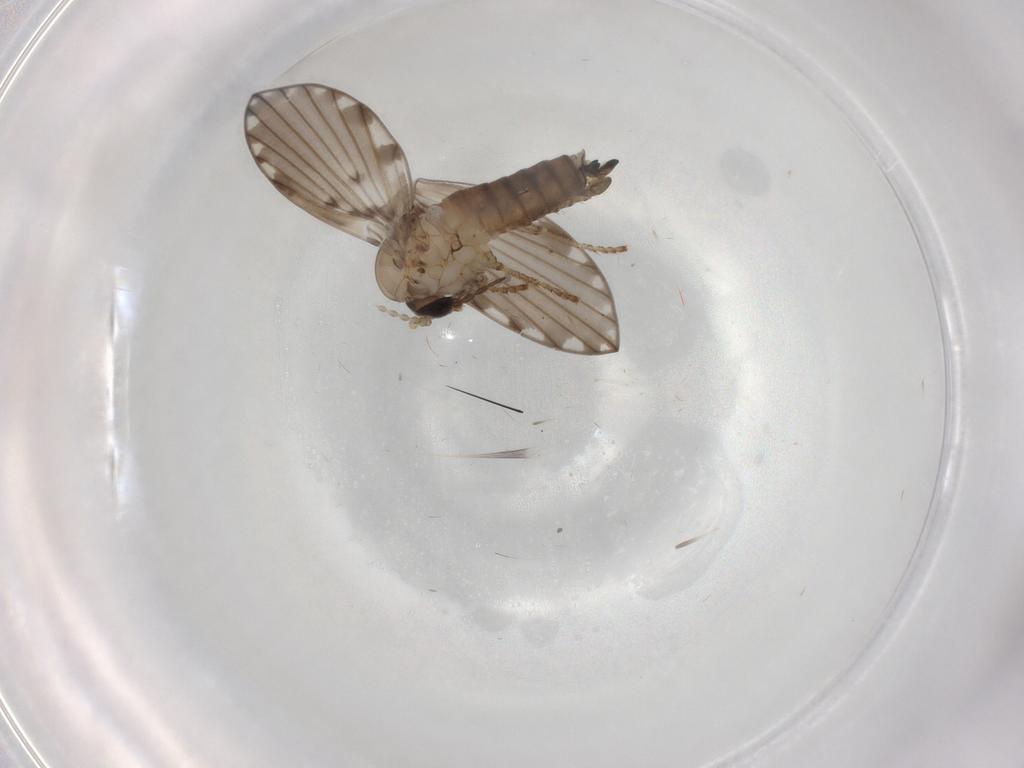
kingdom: Animalia
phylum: Arthropoda
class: Insecta
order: Diptera
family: Psychodidae
